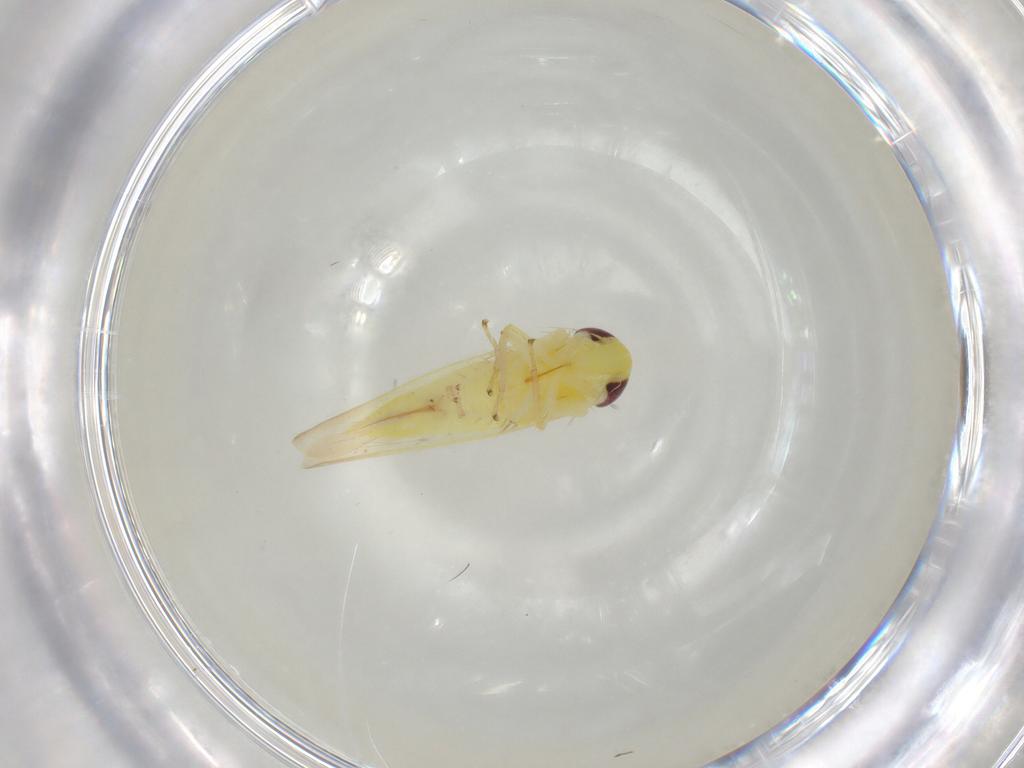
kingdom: Animalia
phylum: Arthropoda
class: Insecta
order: Hemiptera
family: Cicadellidae
